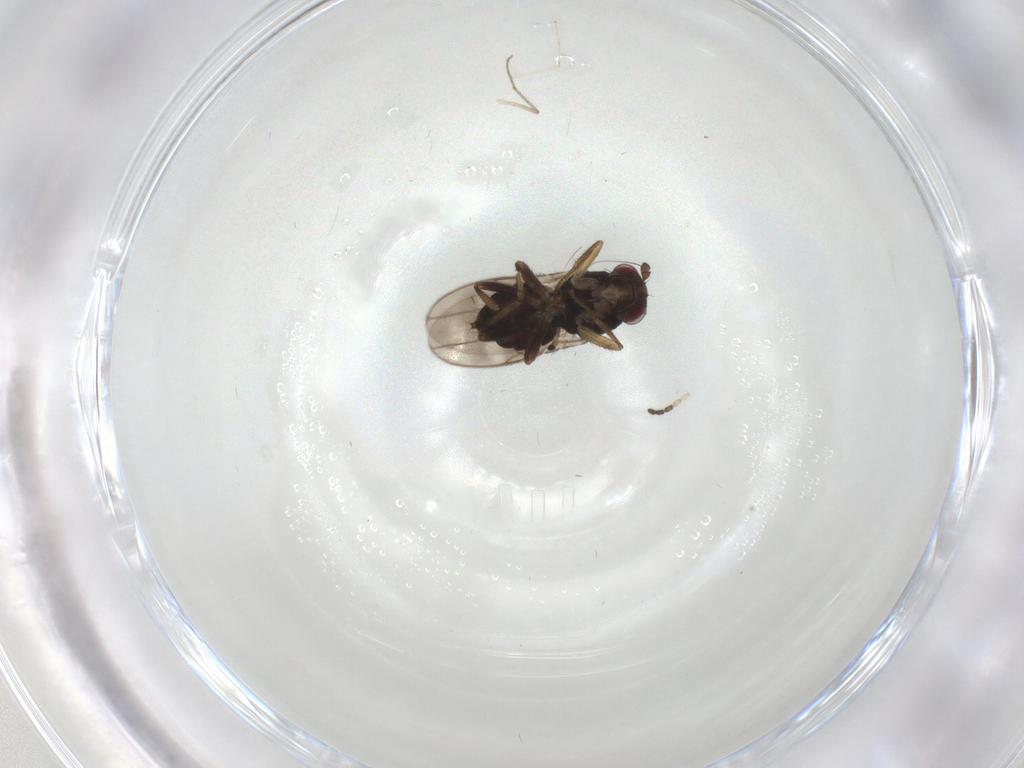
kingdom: Animalia
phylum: Arthropoda
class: Insecta
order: Diptera
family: Sphaeroceridae
